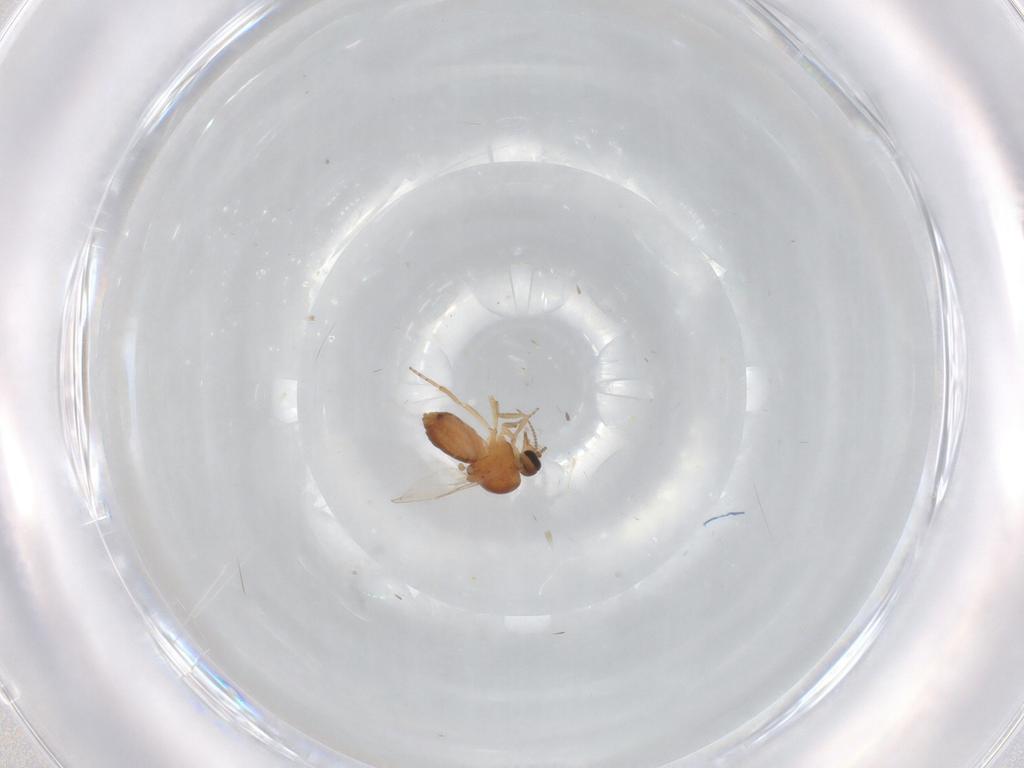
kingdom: Animalia
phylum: Arthropoda
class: Insecta
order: Diptera
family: Ceratopogonidae
